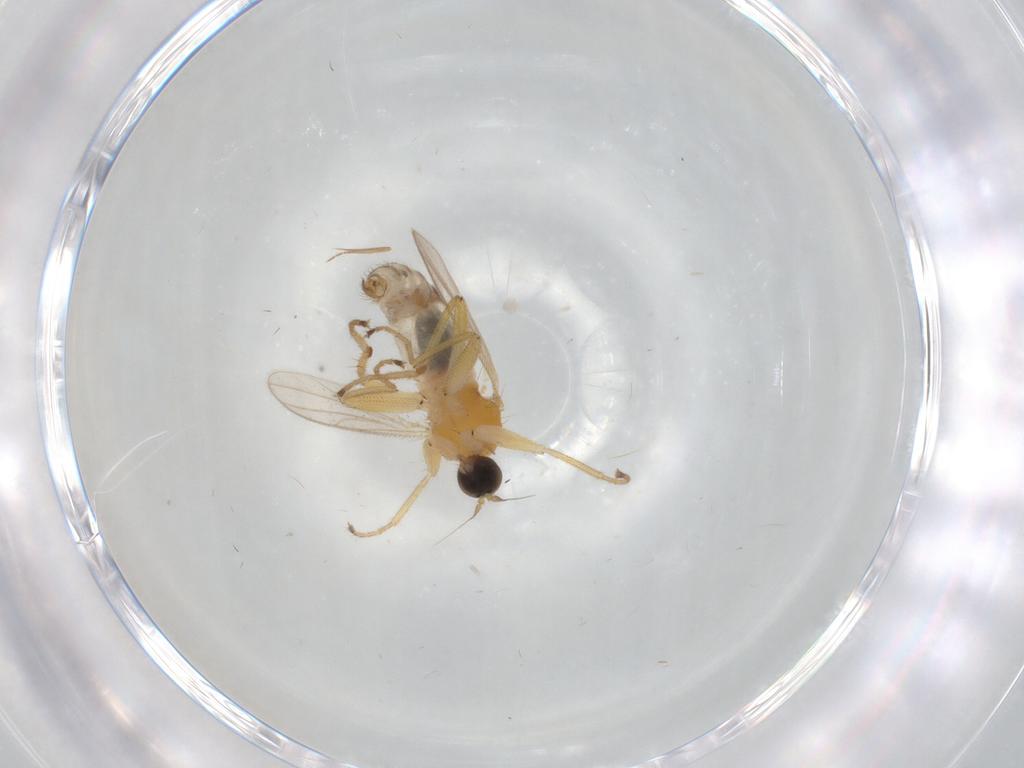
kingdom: Animalia
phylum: Arthropoda
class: Insecta
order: Diptera
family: Hybotidae
